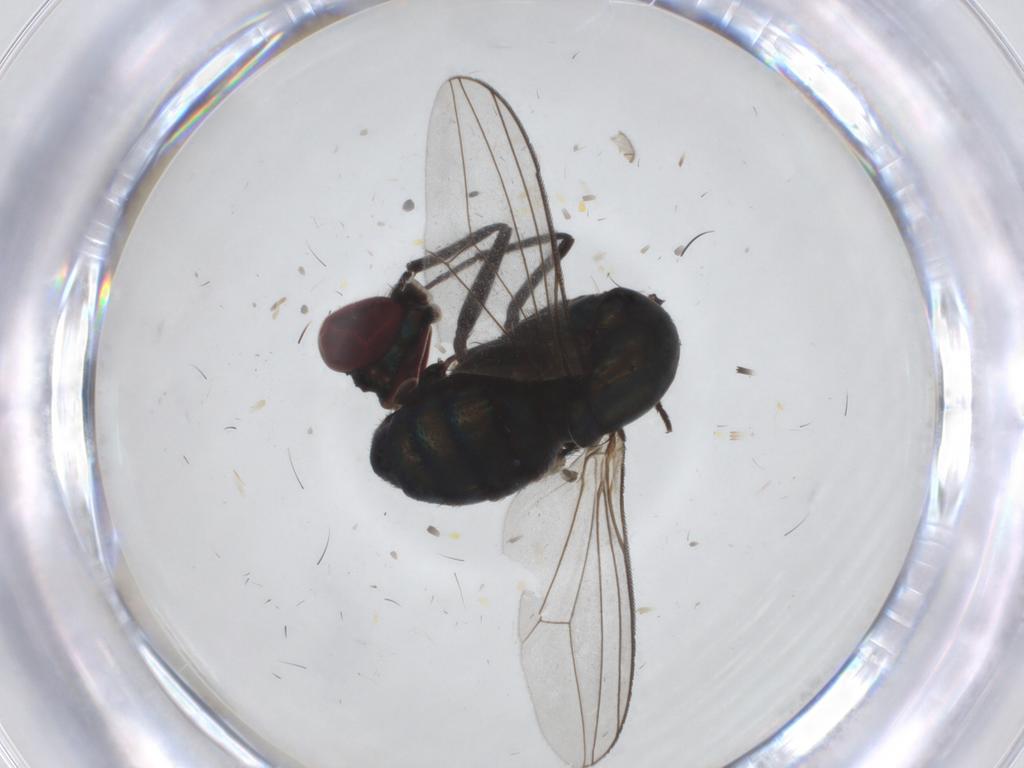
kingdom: Animalia
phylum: Arthropoda
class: Insecta
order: Diptera
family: Dolichopodidae
